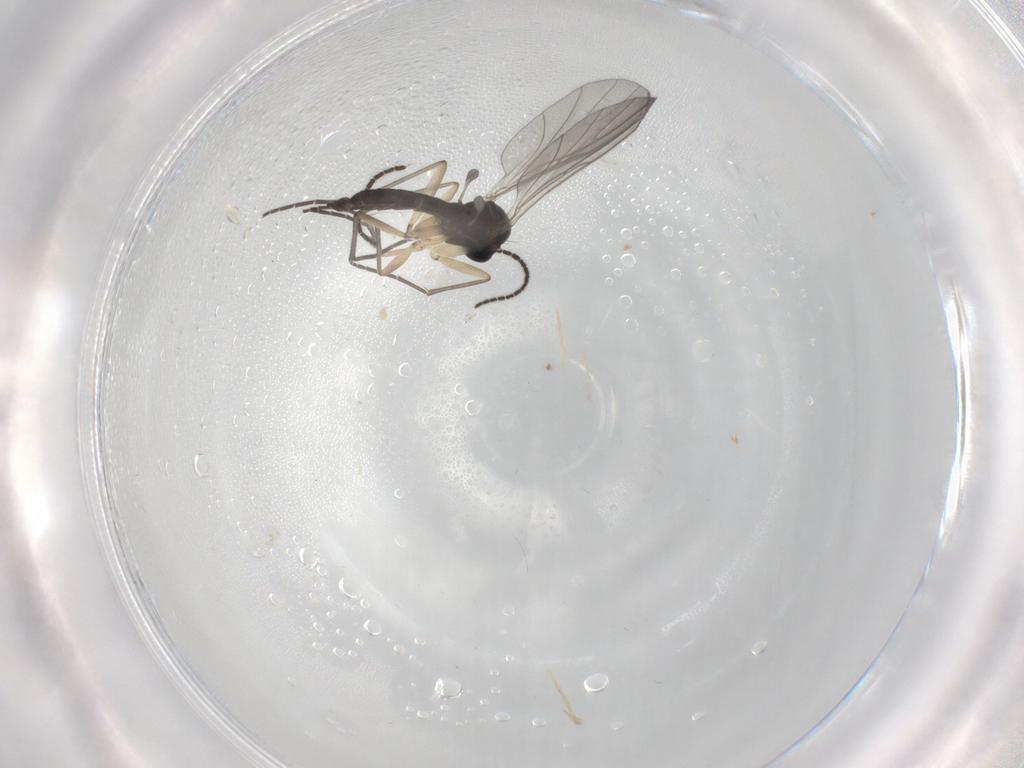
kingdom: Animalia
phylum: Arthropoda
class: Insecta
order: Diptera
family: Sciaridae
